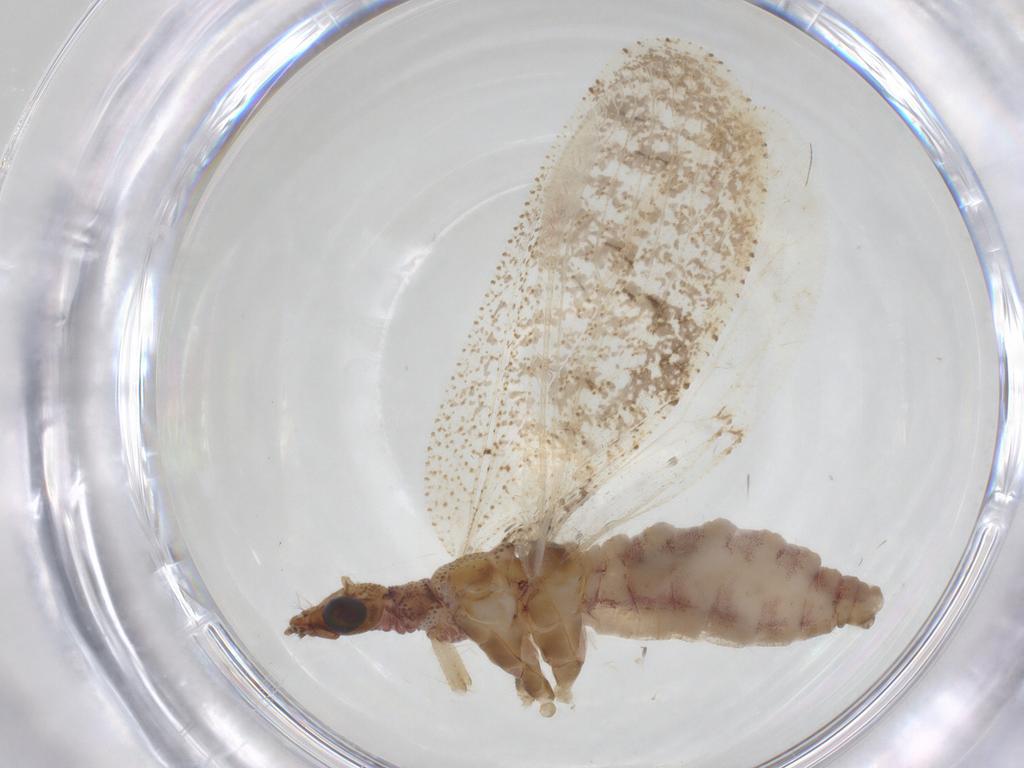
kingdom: Animalia
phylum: Arthropoda
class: Insecta
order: Neuroptera
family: Hemerobiidae
